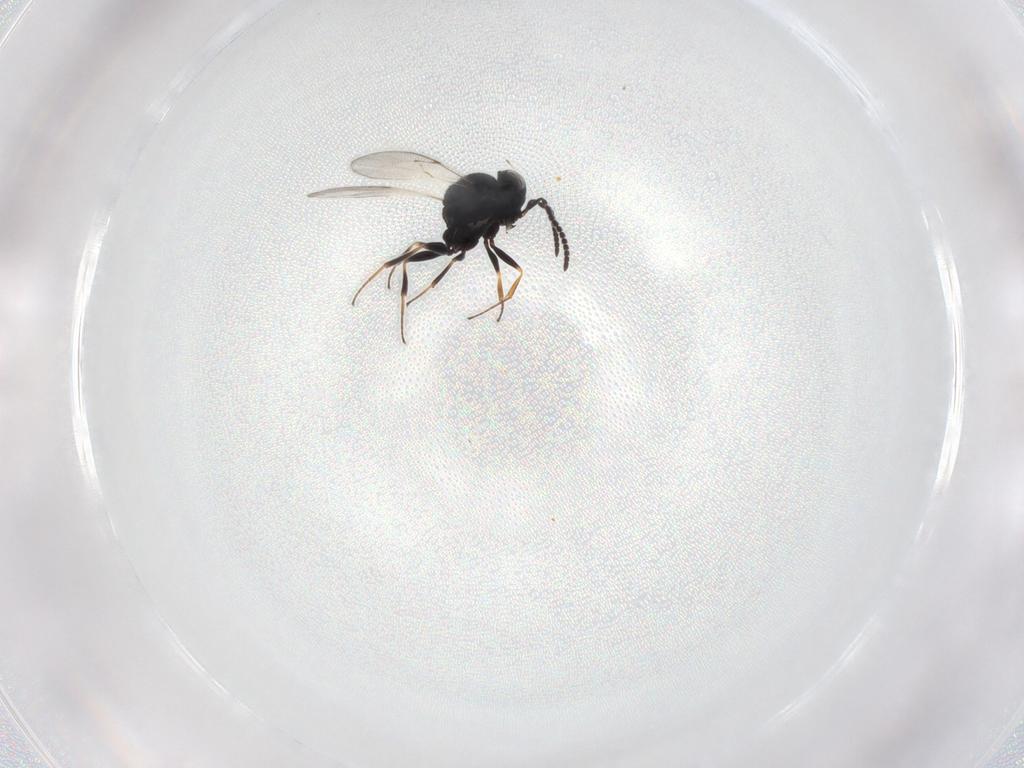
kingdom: Animalia
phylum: Arthropoda
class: Insecta
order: Hymenoptera
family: Scelionidae
